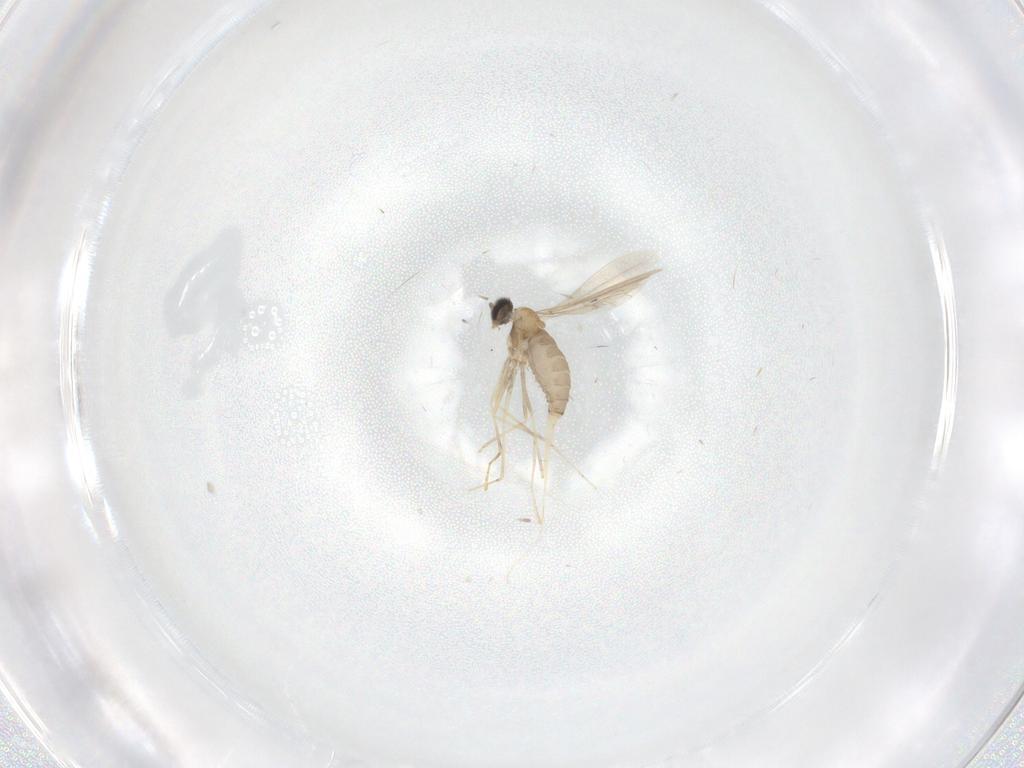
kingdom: Animalia
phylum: Arthropoda
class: Insecta
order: Diptera
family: Cecidomyiidae
